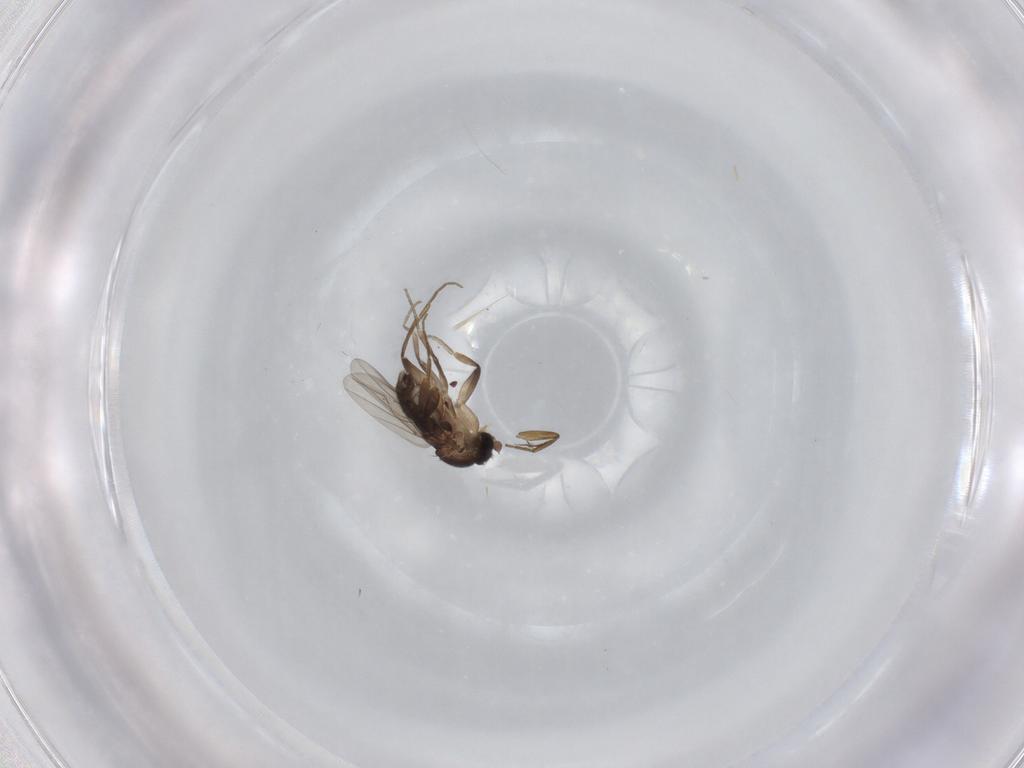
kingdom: Animalia
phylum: Arthropoda
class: Insecta
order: Diptera
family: Phoridae
